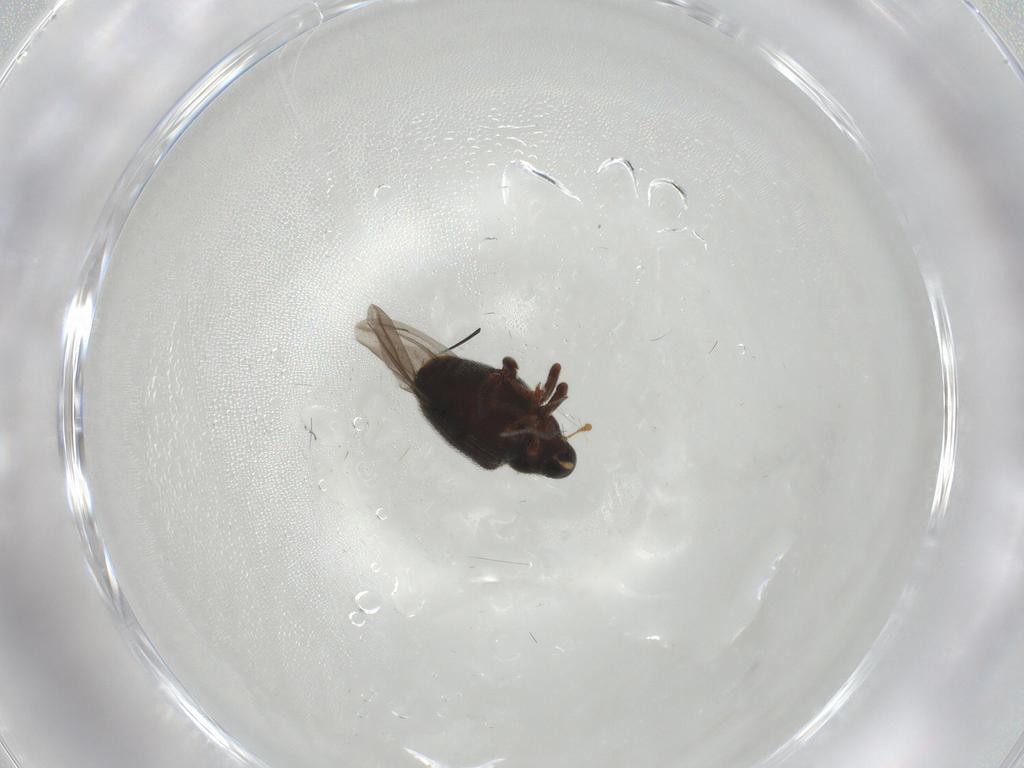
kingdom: Animalia
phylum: Arthropoda
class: Insecta
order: Coleoptera
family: Curculionidae
